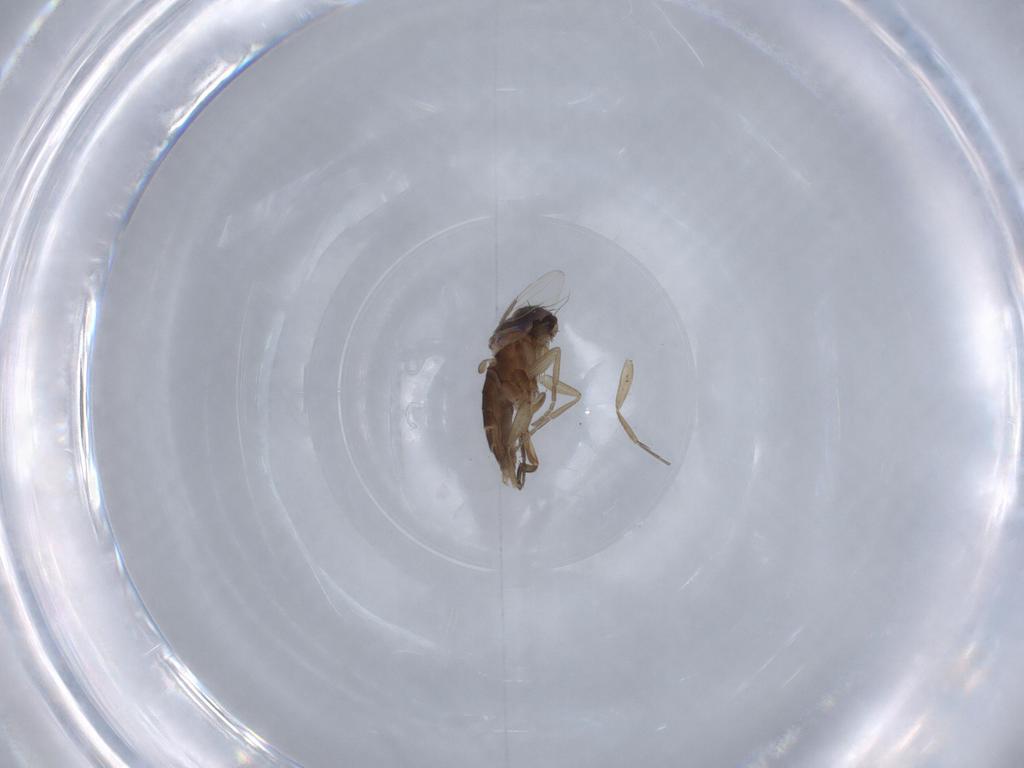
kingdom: Animalia
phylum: Arthropoda
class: Insecta
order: Diptera
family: Phoridae
